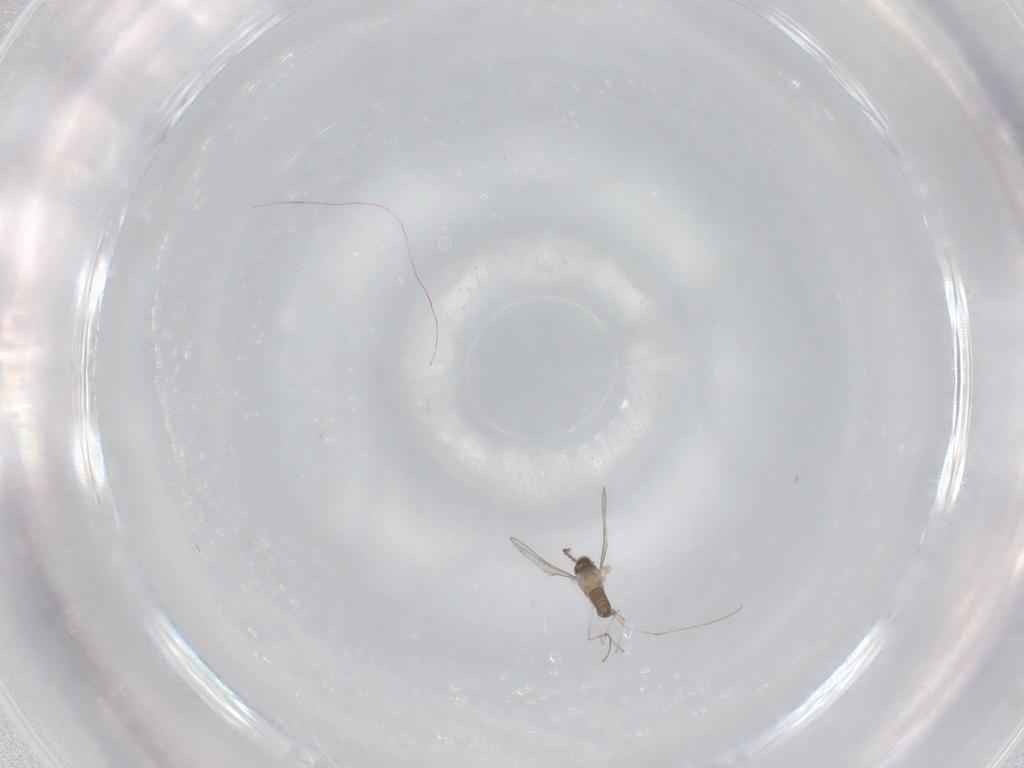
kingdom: Animalia
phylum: Arthropoda
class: Insecta
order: Diptera
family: Cecidomyiidae
